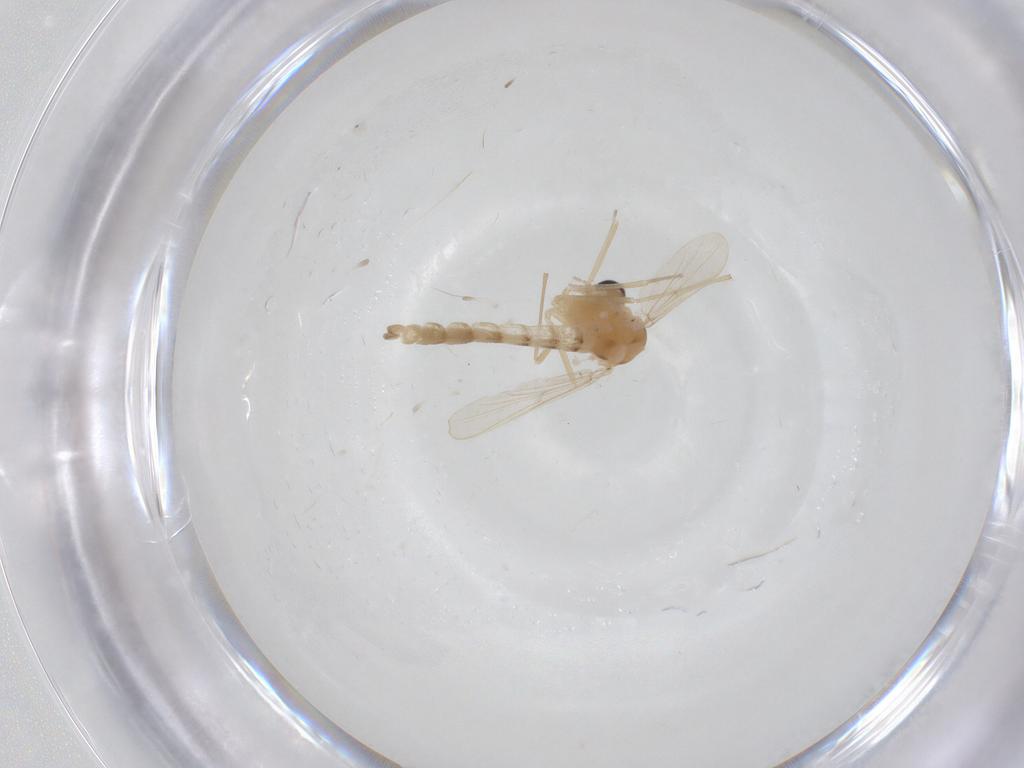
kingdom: Animalia
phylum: Arthropoda
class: Insecta
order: Diptera
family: Chironomidae
